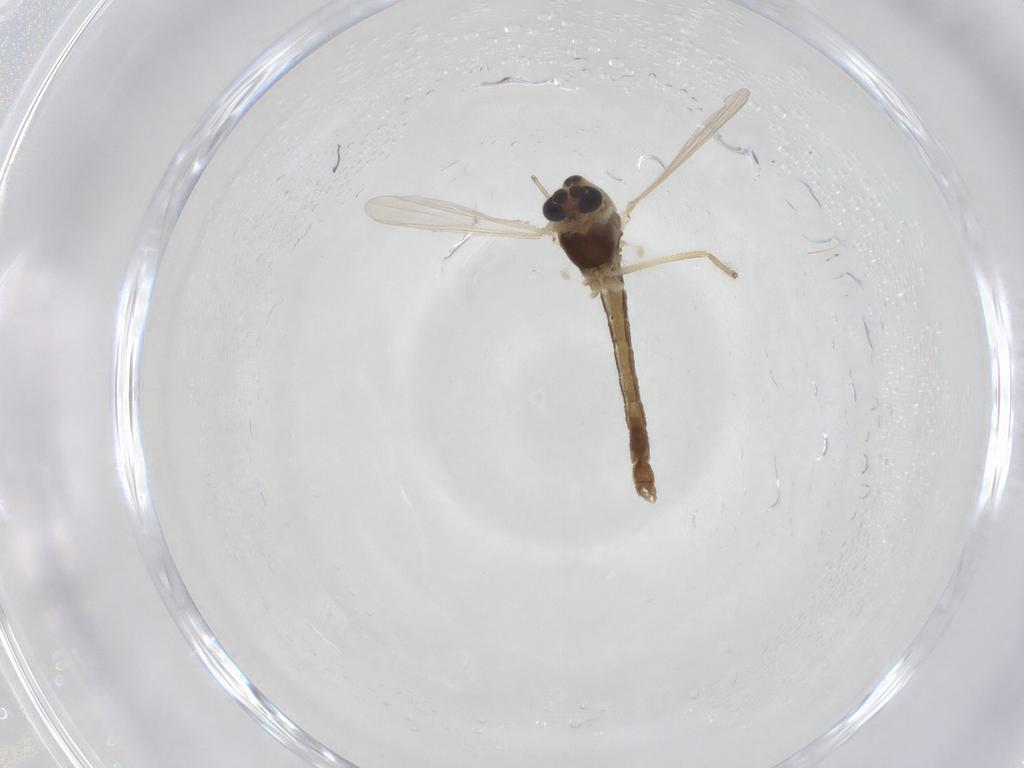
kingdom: Animalia
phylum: Arthropoda
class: Insecta
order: Diptera
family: Chironomidae
